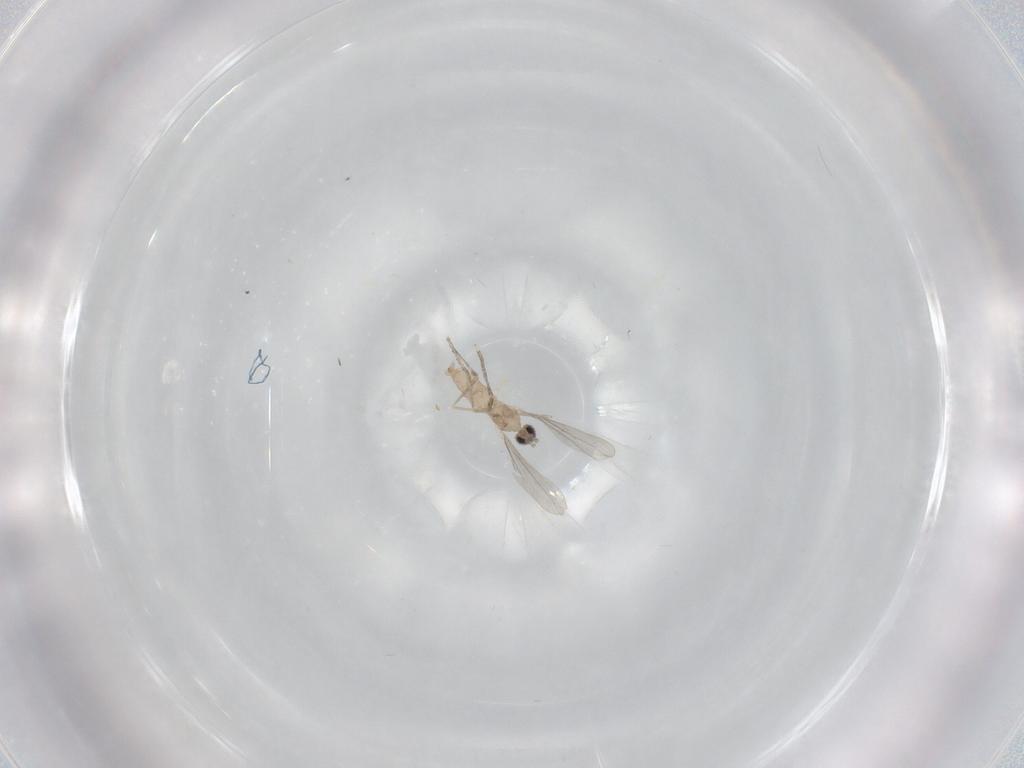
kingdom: Animalia
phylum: Arthropoda
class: Insecta
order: Diptera
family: Cecidomyiidae
